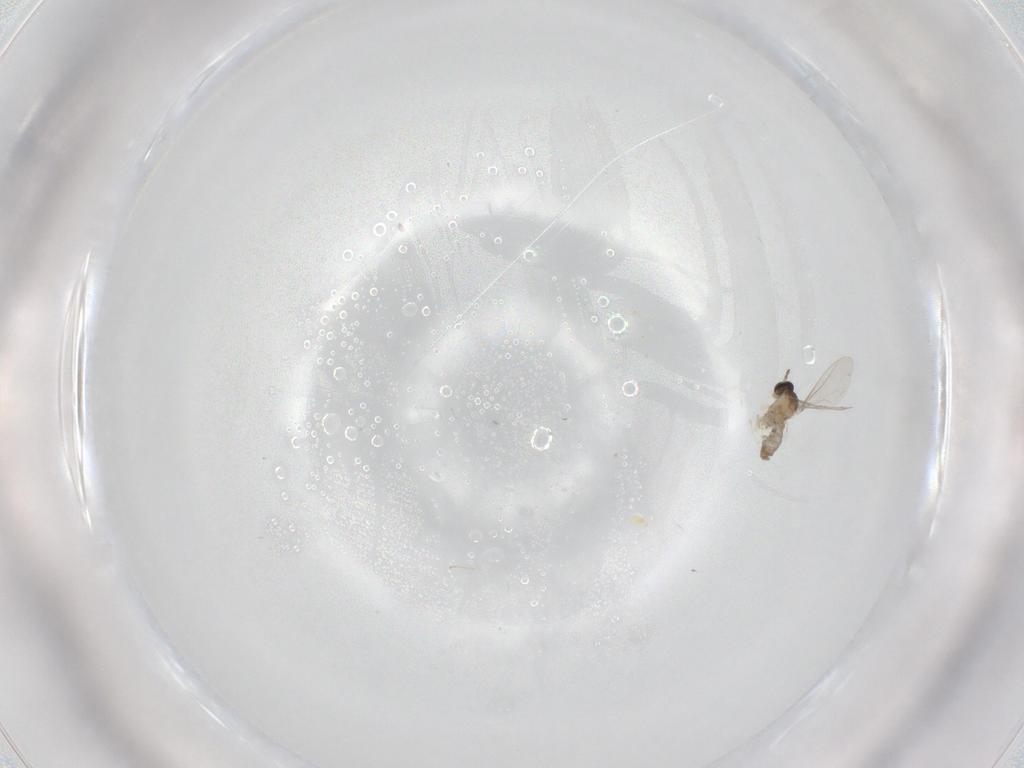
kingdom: Animalia
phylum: Arthropoda
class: Insecta
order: Diptera
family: Cecidomyiidae
